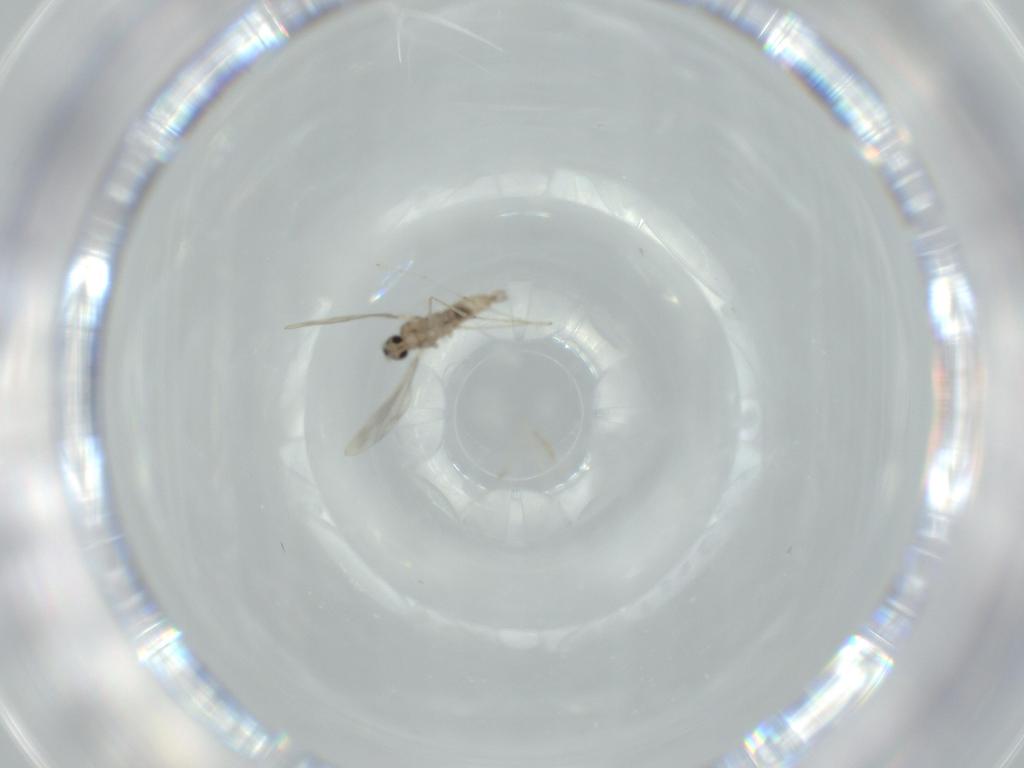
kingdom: Animalia
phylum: Arthropoda
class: Insecta
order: Diptera
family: Cecidomyiidae
